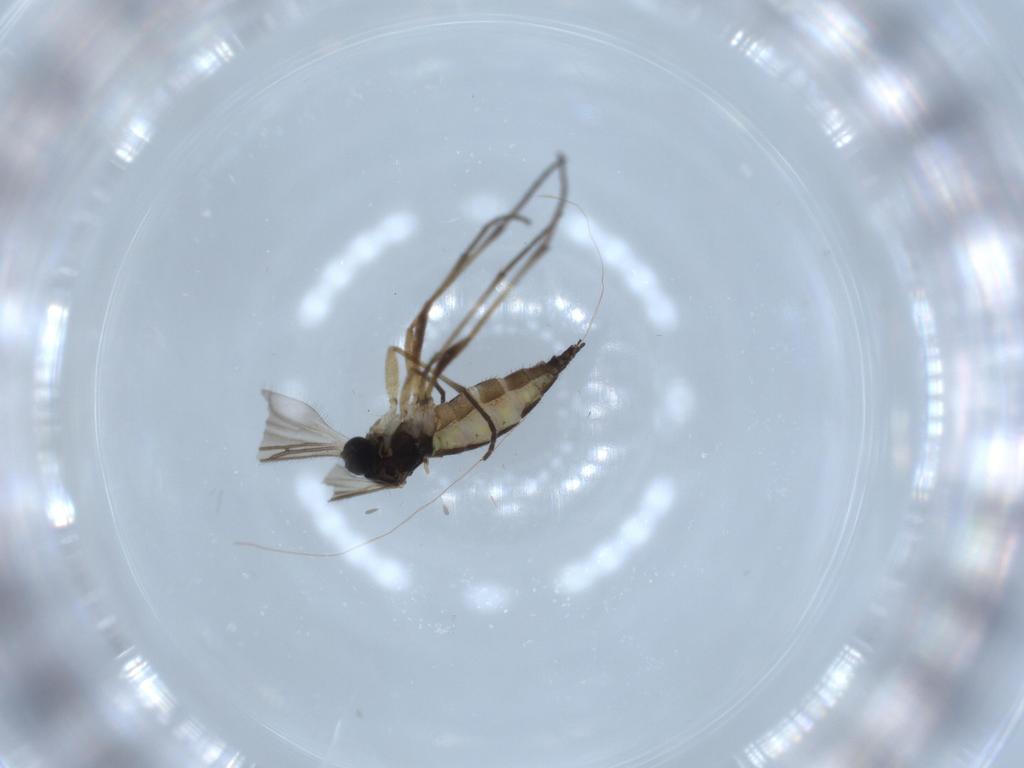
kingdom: Animalia
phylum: Arthropoda
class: Insecta
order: Diptera
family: Sciaridae
